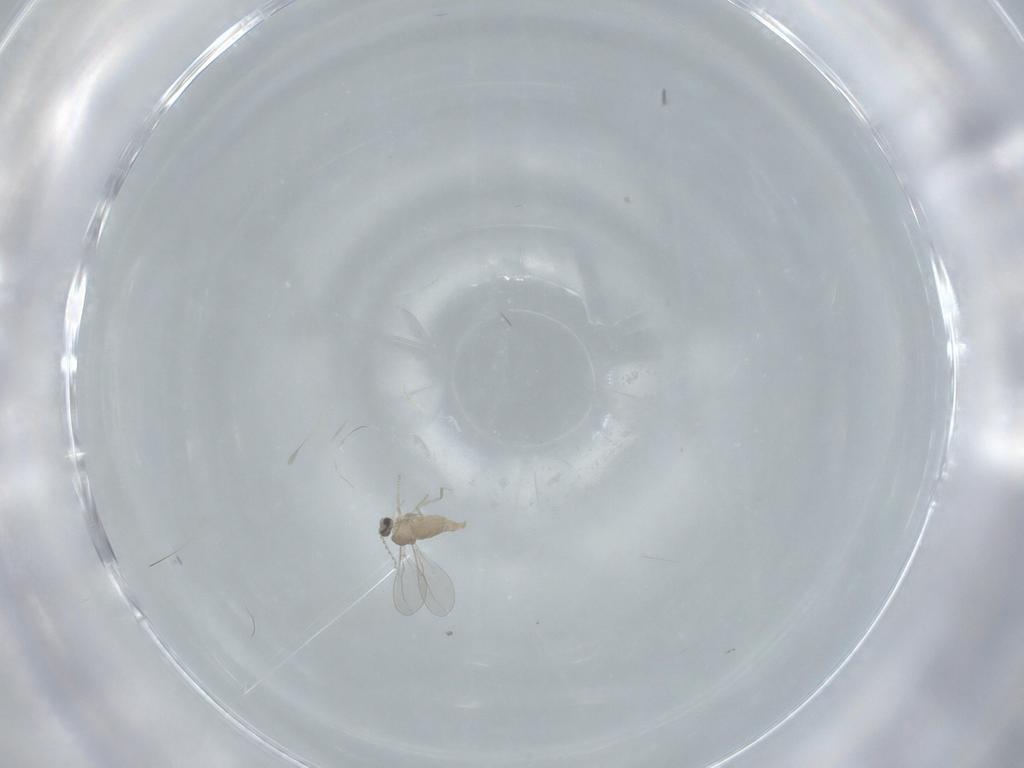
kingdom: Animalia
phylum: Arthropoda
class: Insecta
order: Diptera
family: Cecidomyiidae
